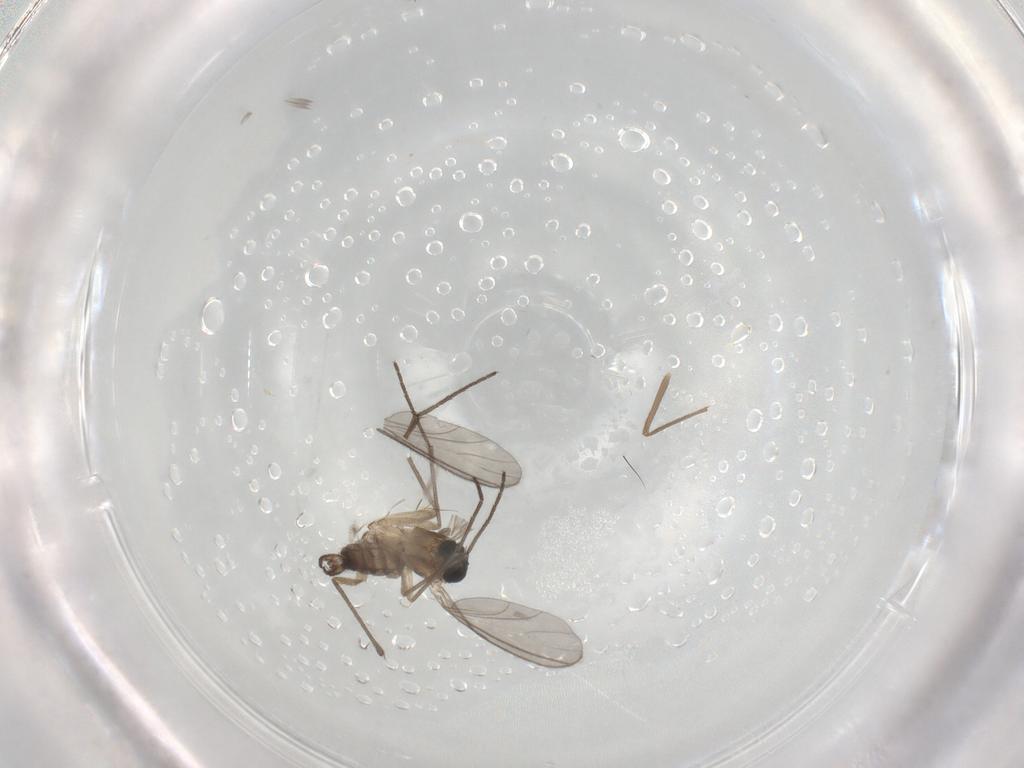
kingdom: Animalia
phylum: Arthropoda
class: Insecta
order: Diptera
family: Sciaridae
